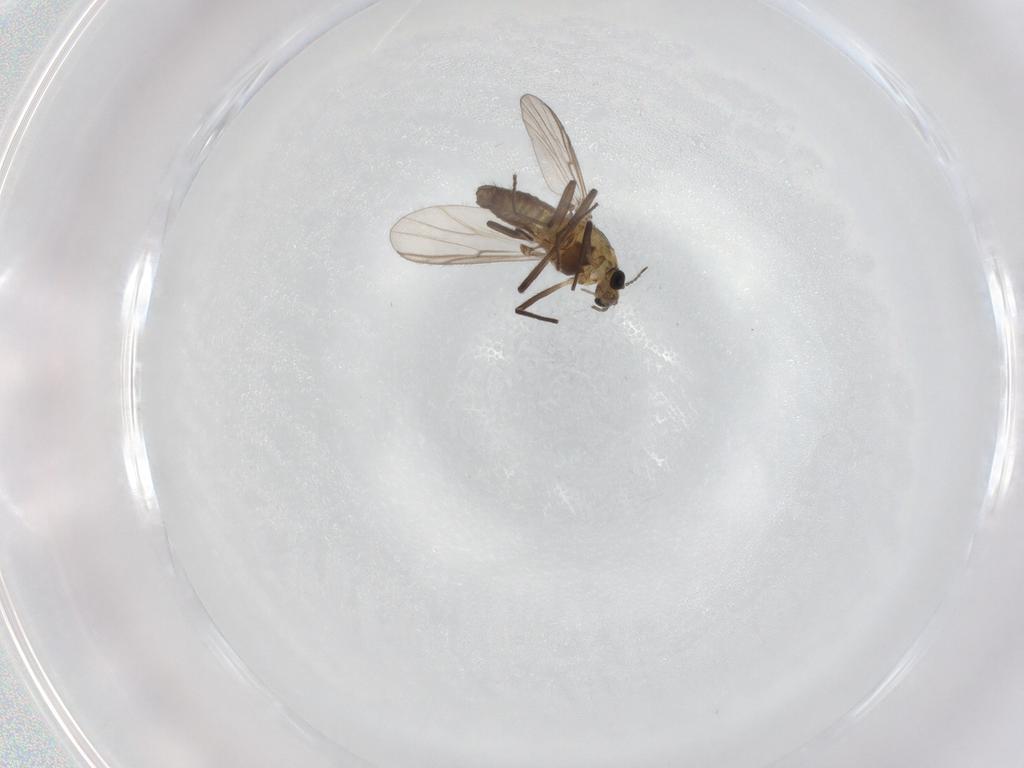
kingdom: Animalia
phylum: Arthropoda
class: Insecta
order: Diptera
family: Chironomidae
